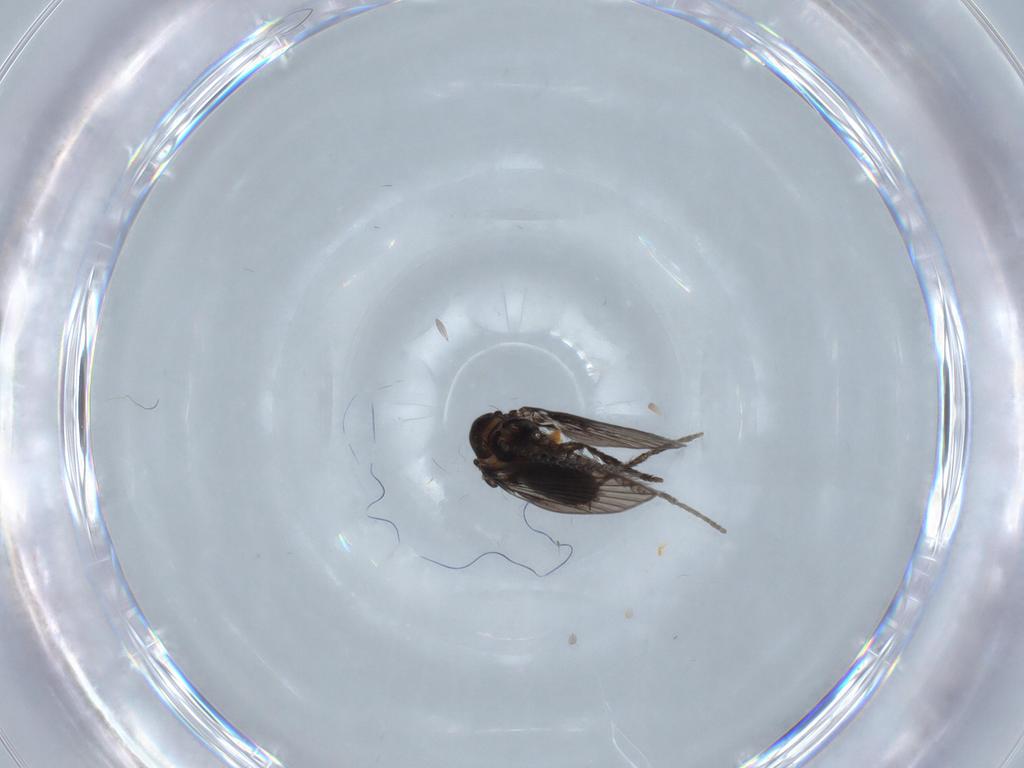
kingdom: Animalia
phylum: Arthropoda
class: Insecta
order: Diptera
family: Psychodidae
